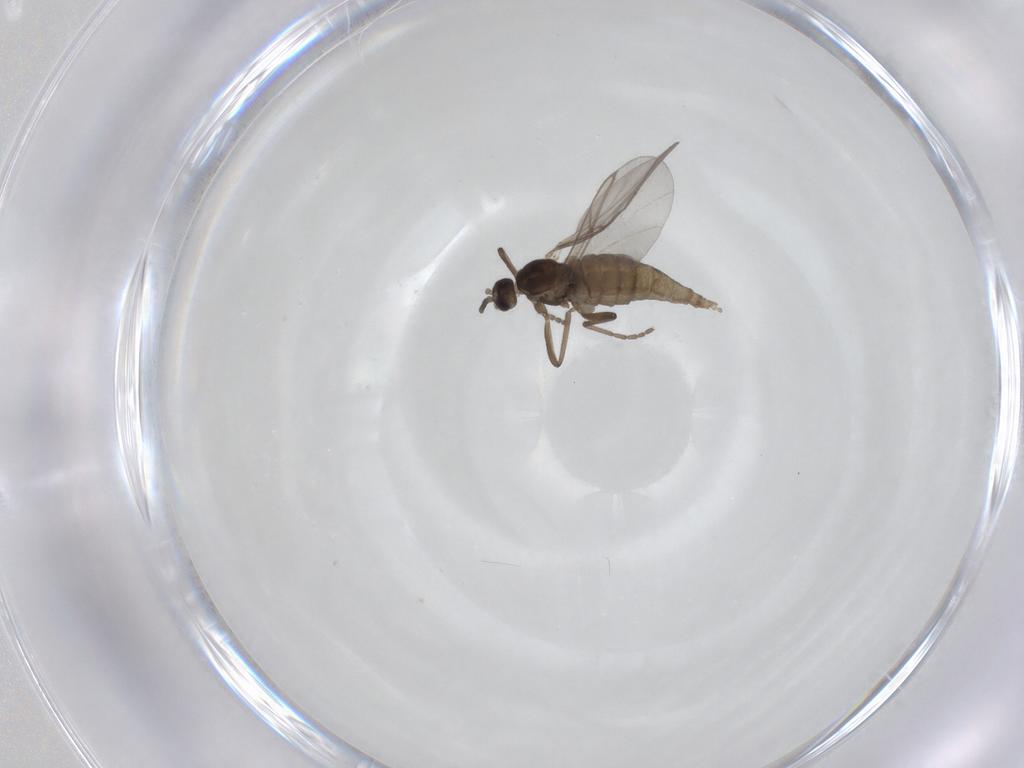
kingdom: Animalia
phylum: Arthropoda
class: Insecta
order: Diptera
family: Cecidomyiidae
